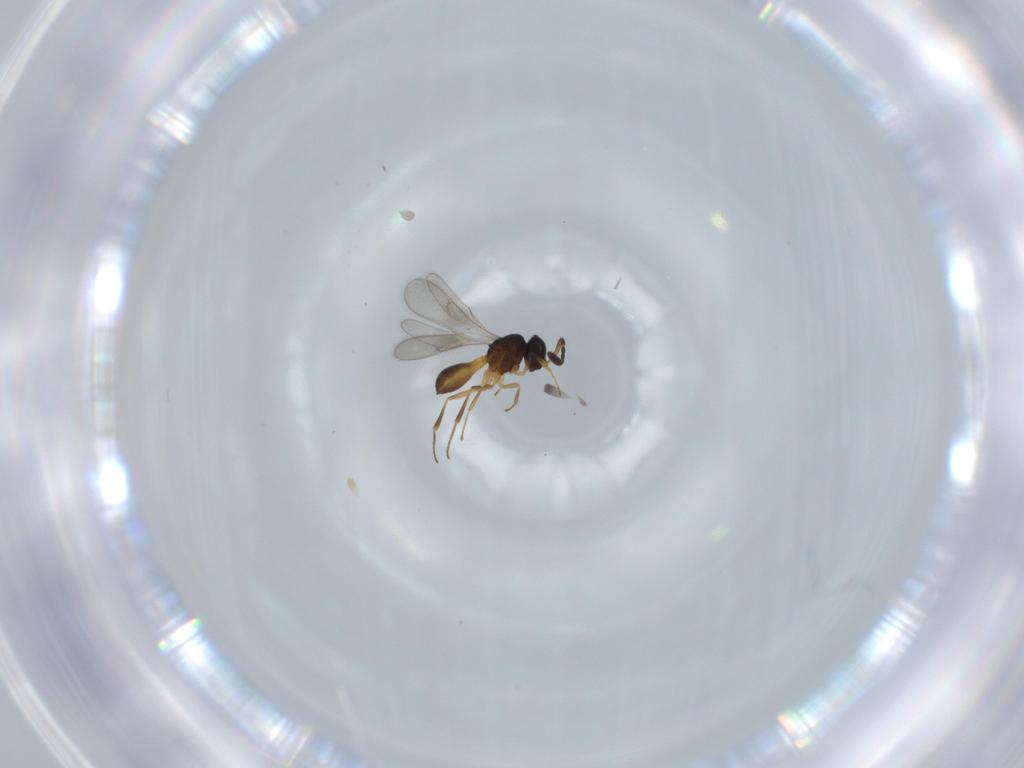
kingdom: Animalia
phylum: Arthropoda
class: Insecta
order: Hymenoptera
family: Scelionidae
